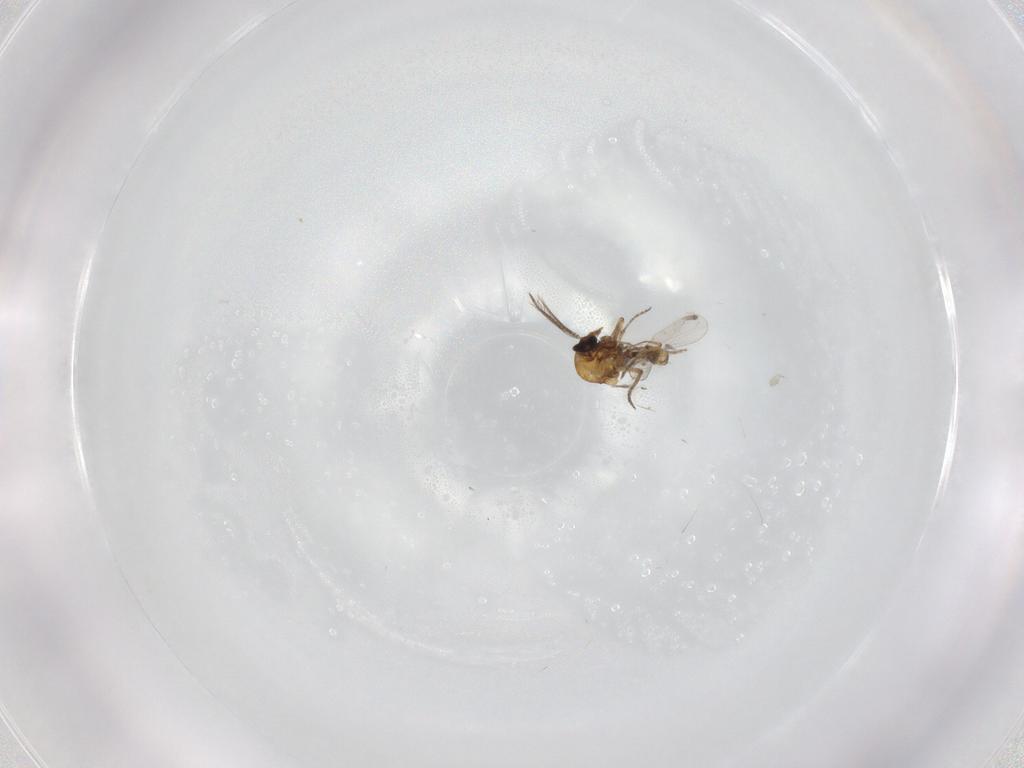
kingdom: Animalia
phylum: Arthropoda
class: Insecta
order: Diptera
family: Ceratopogonidae
